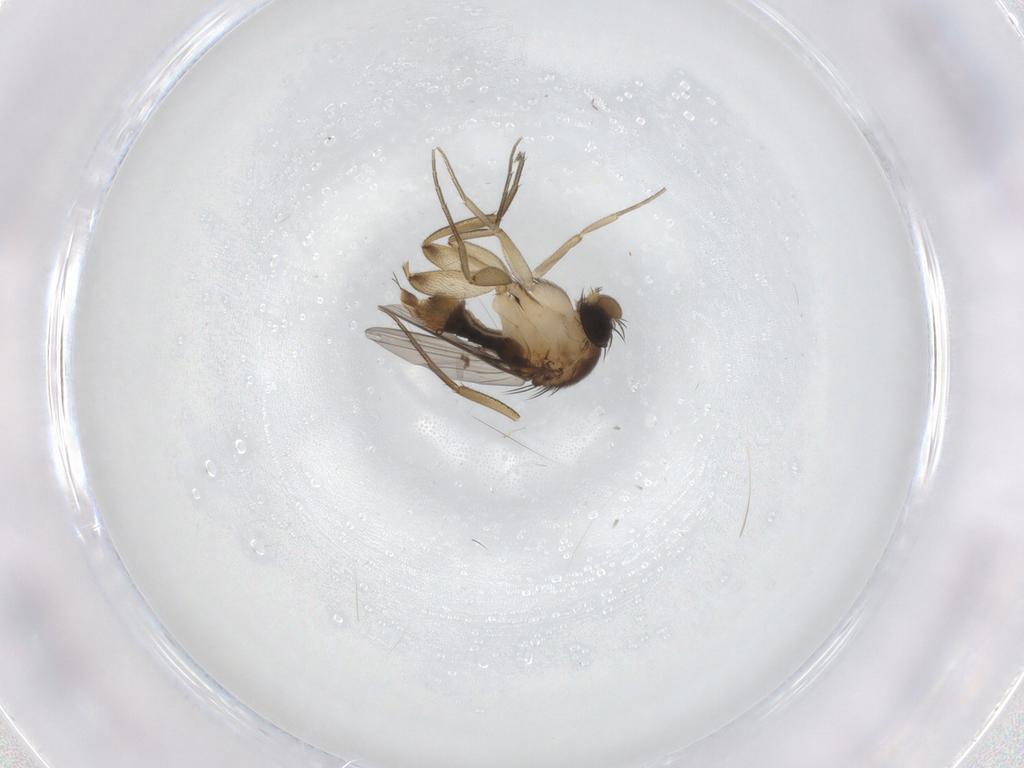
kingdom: Animalia
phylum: Arthropoda
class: Insecta
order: Diptera
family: Phoridae
